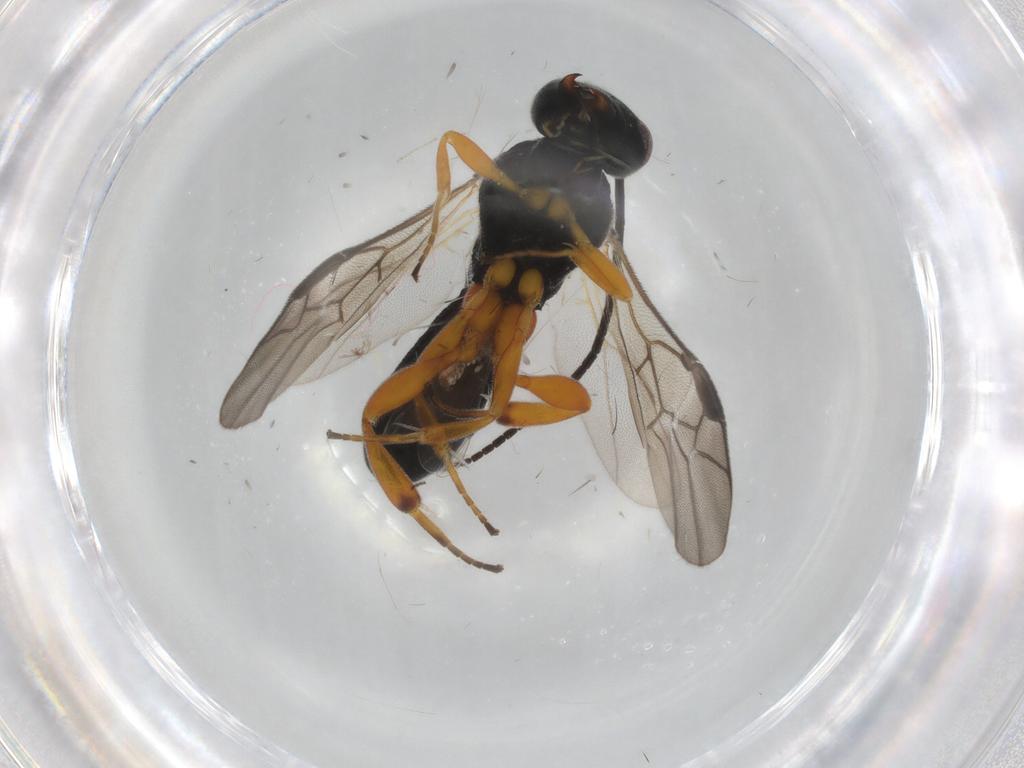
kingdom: Animalia
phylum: Arthropoda
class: Insecta
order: Hymenoptera
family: Braconidae
